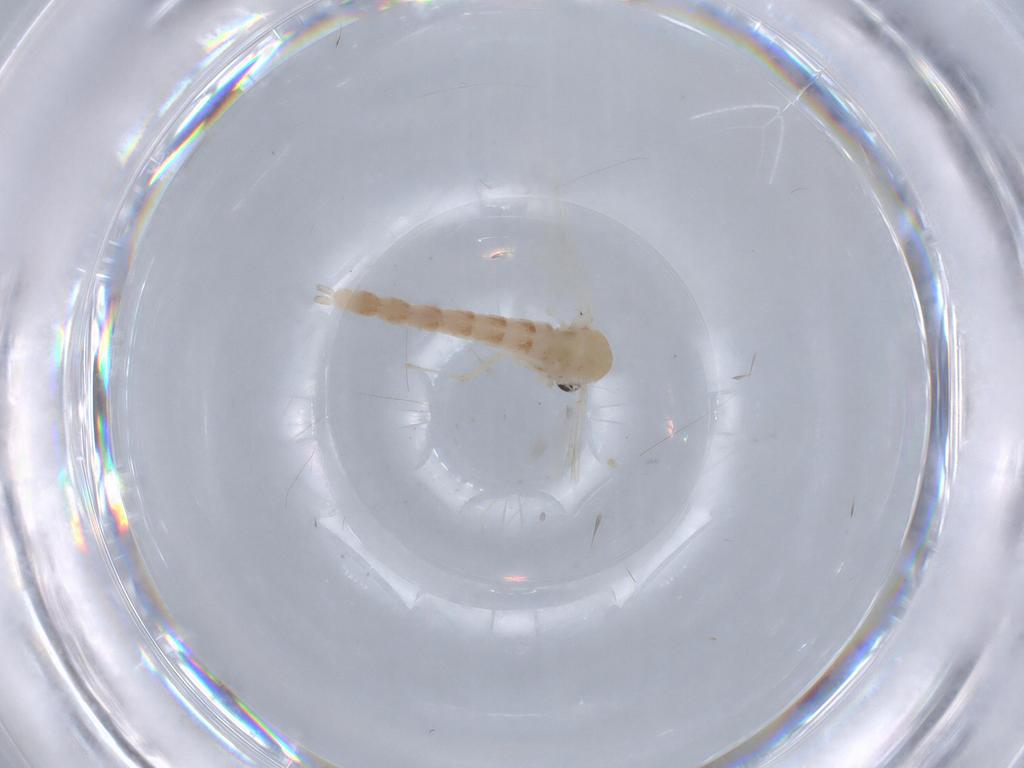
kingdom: Animalia
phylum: Arthropoda
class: Insecta
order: Diptera
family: Chironomidae
